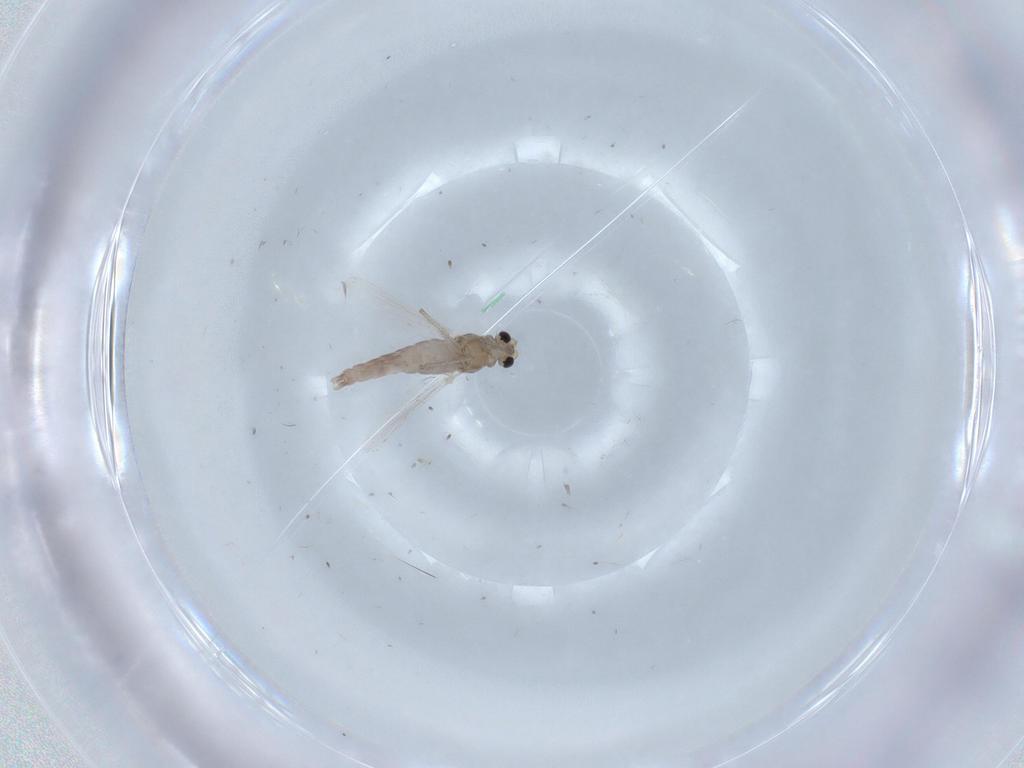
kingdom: Animalia
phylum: Arthropoda
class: Insecta
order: Diptera
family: Chironomidae
